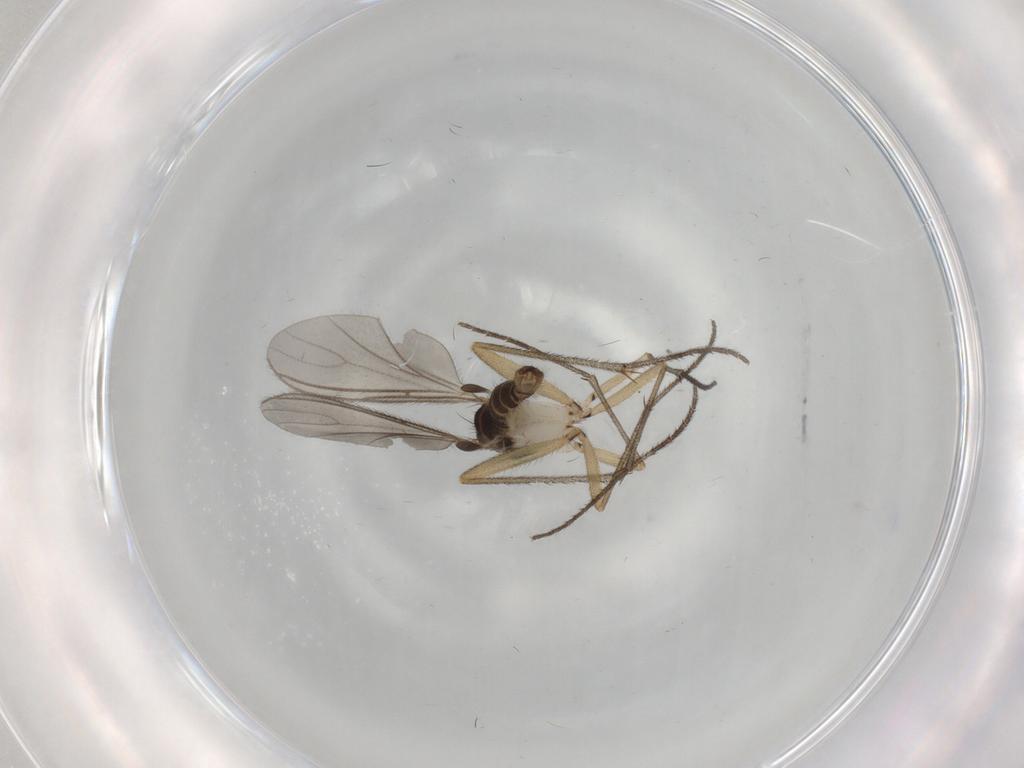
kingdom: Animalia
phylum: Arthropoda
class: Insecta
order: Diptera
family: Sciaridae
